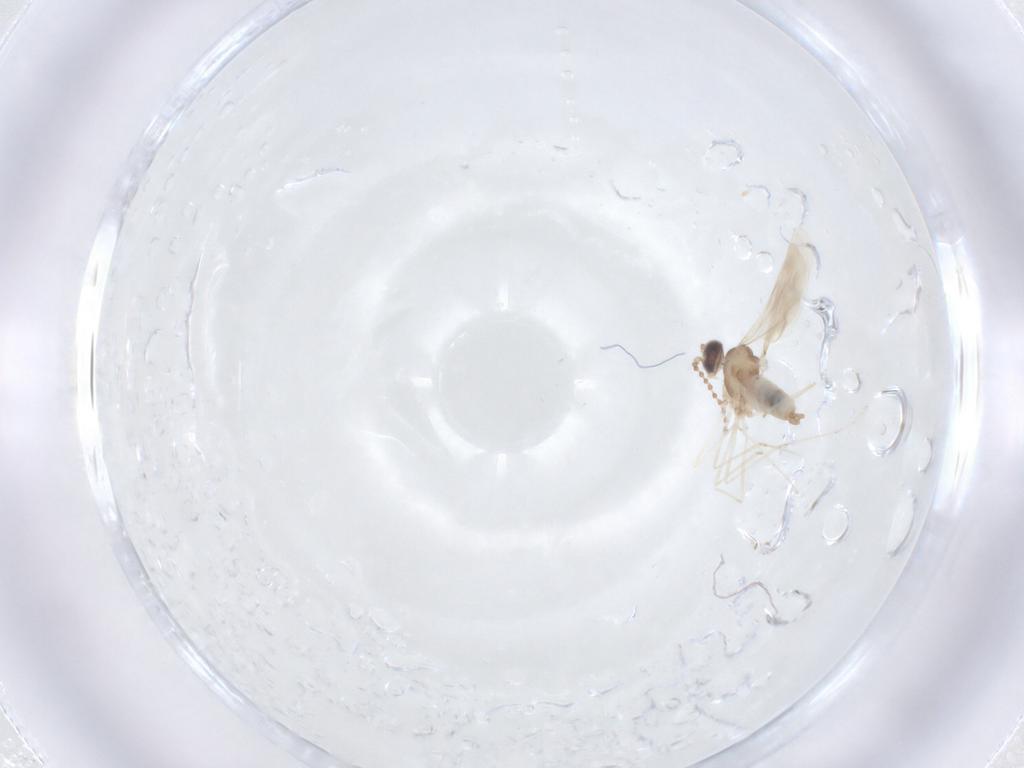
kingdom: Animalia
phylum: Arthropoda
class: Insecta
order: Diptera
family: Cecidomyiidae
